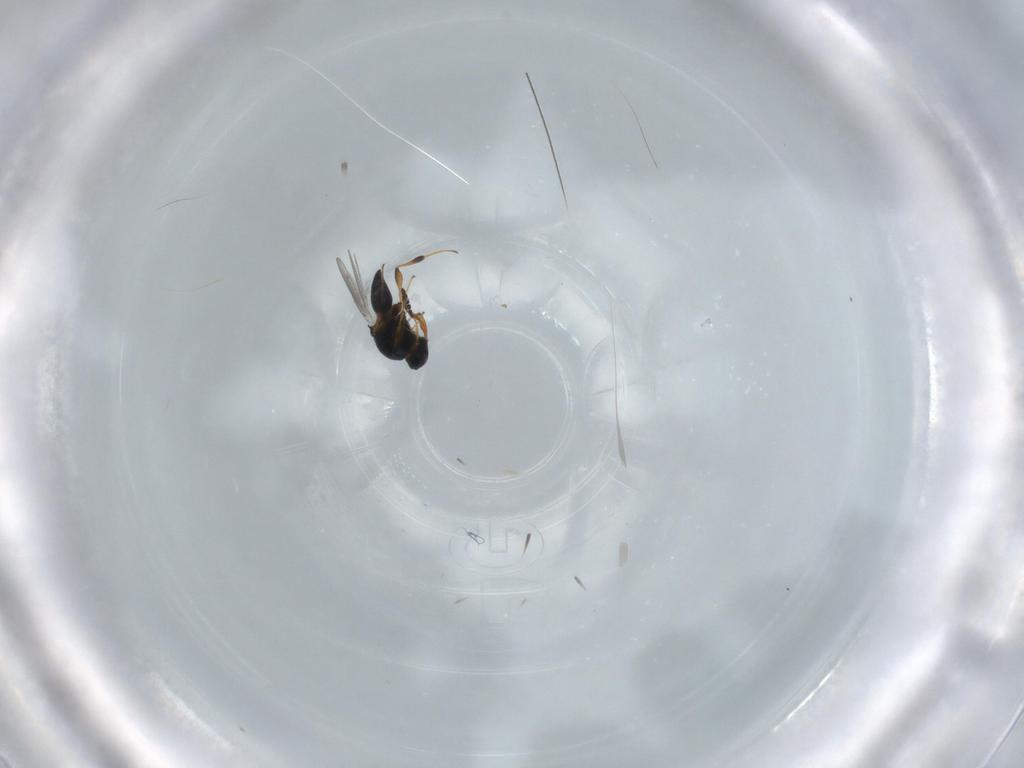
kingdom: Animalia
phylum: Arthropoda
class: Insecta
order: Hymenoptera
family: Platygastridae
